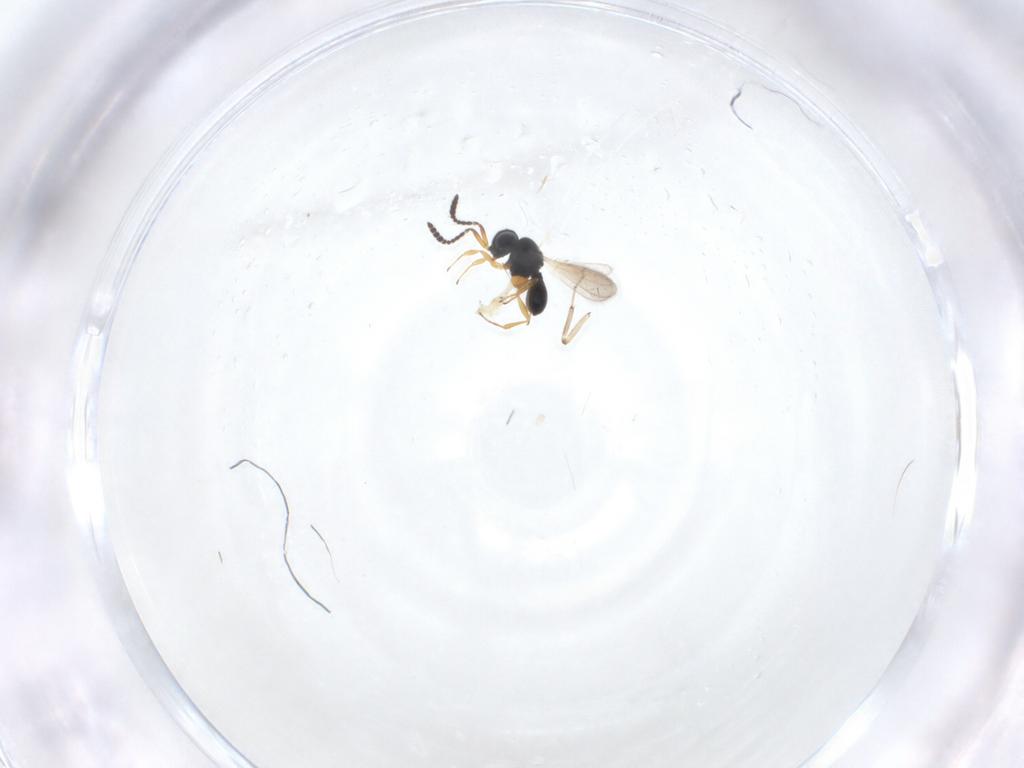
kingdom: Animalia
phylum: Arthropoda
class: Insecta
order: Hymenoptera
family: Scelionidae
